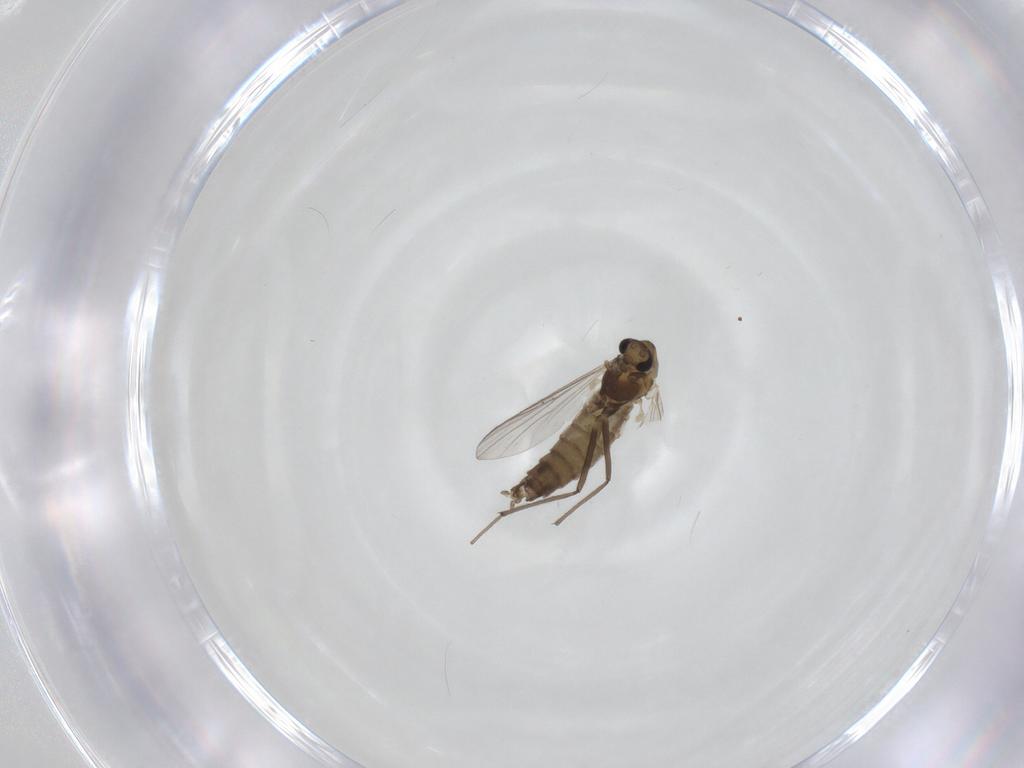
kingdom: Animalia
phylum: Arthropoda
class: Insecta
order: Diptera
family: Chironomidae
